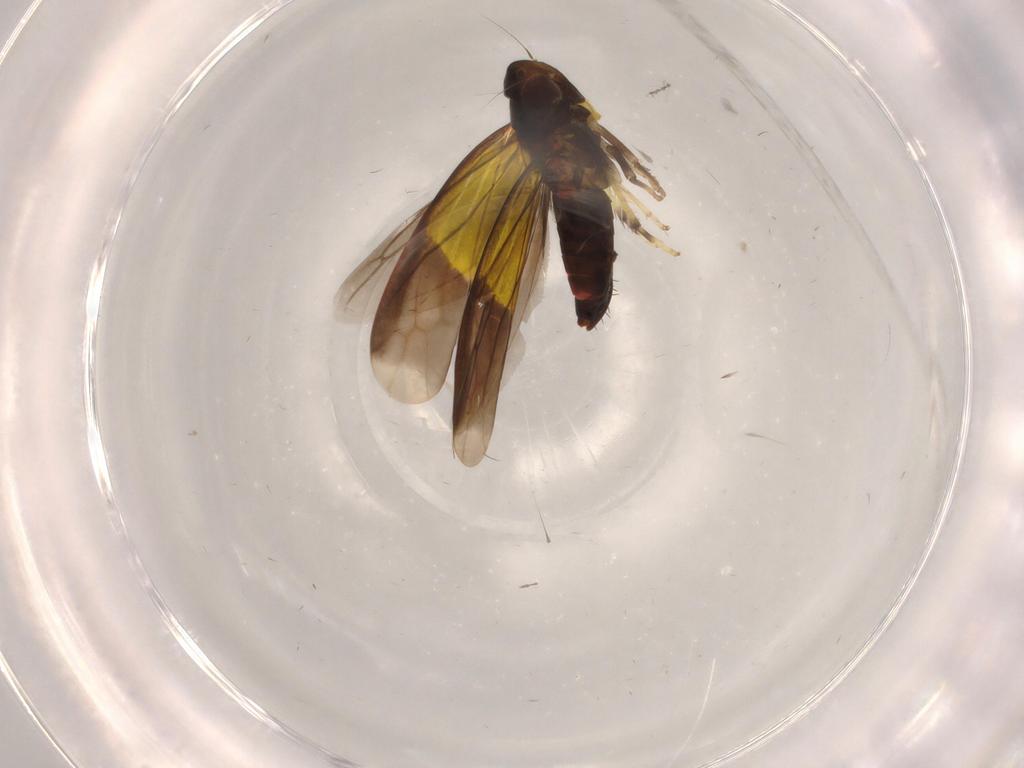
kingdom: Animalia
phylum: Arthropoda
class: Insecta
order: Hemiptera
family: Cicadellidae
